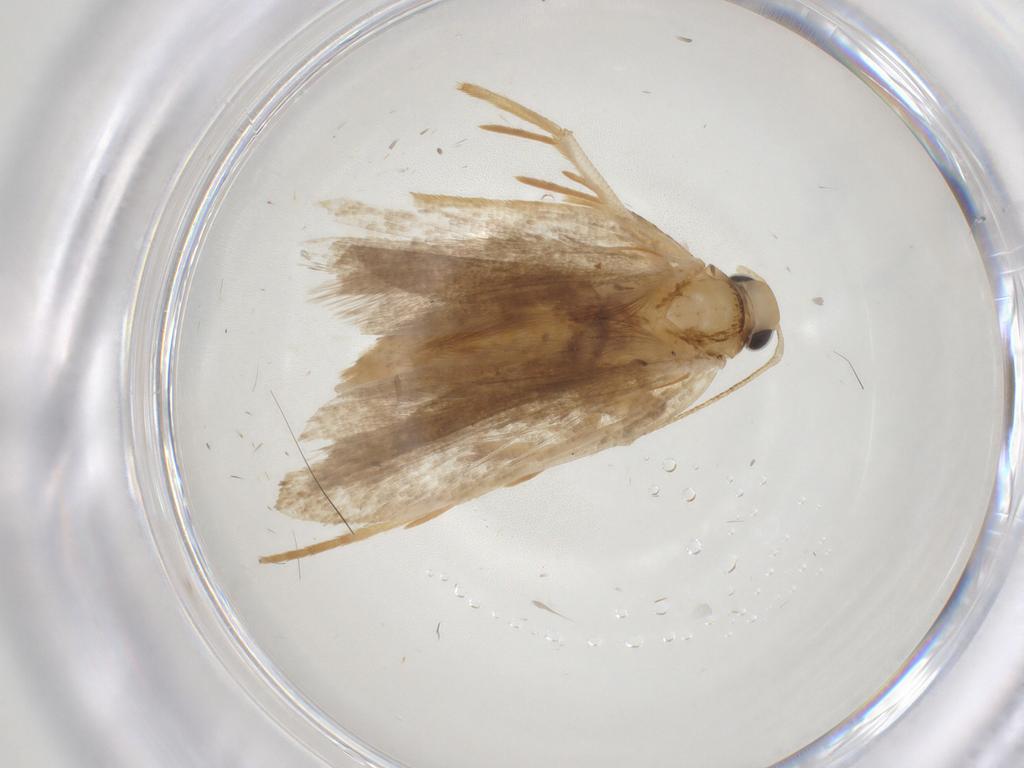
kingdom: Animalia
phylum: Arthropoda
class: Insecta
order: Lepidoptera
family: Gelechiidae
